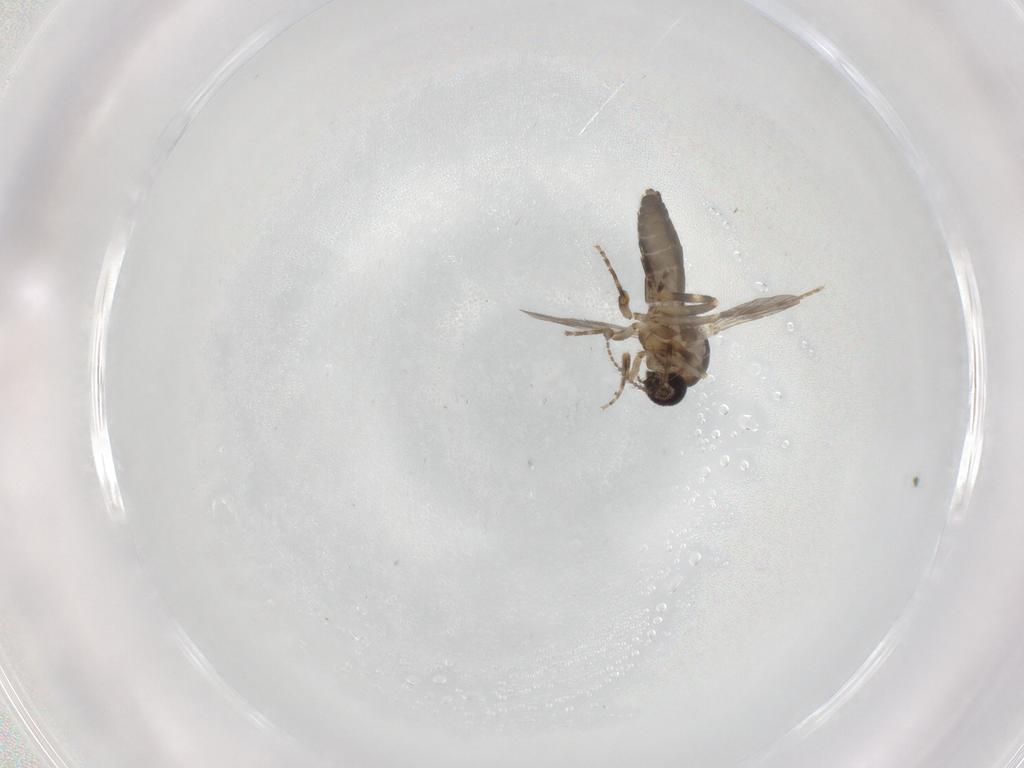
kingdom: Animalia
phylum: Arthropoda
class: Insecta
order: Diptera
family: Ceratopogonidae
